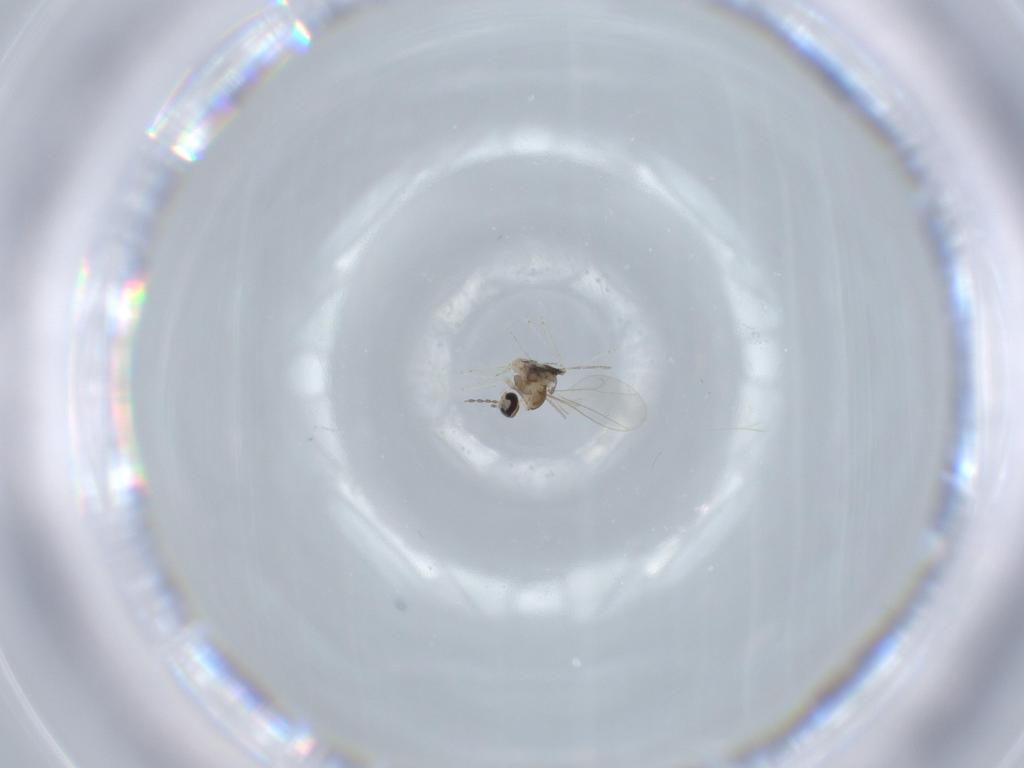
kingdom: Animalia
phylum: Arthropoda
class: Insecta
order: Diptera
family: Cecidomyiidae
